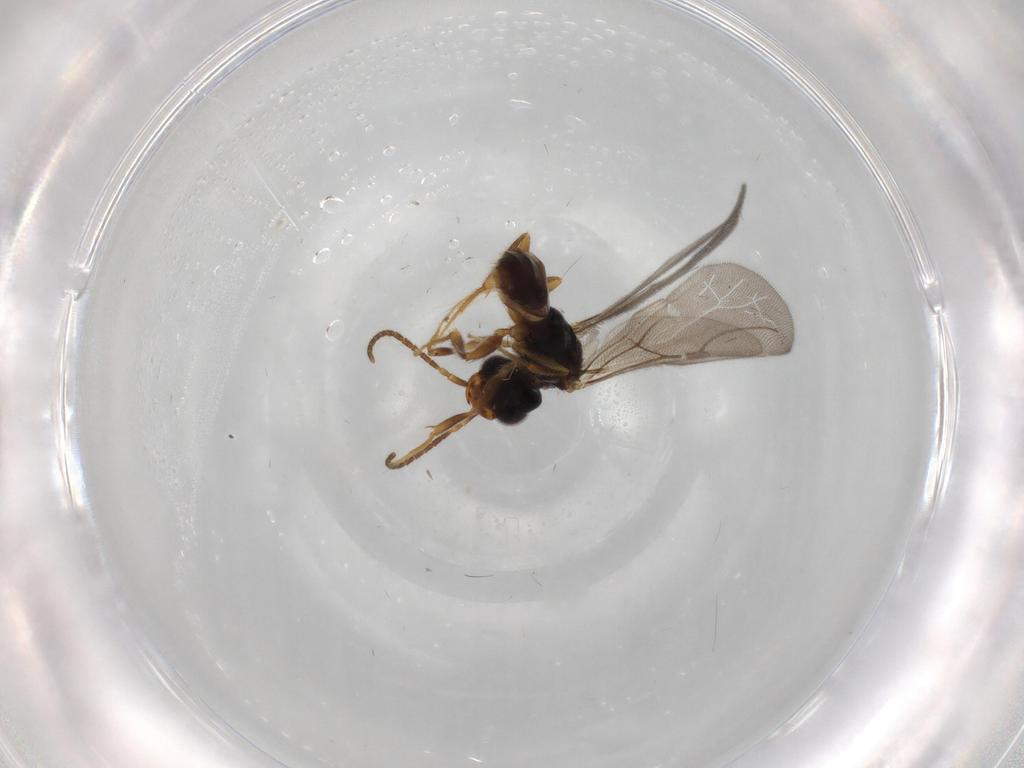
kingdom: Animalia
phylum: Arthropoda
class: Insecta
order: Hymenoptera
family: Bethylidae
